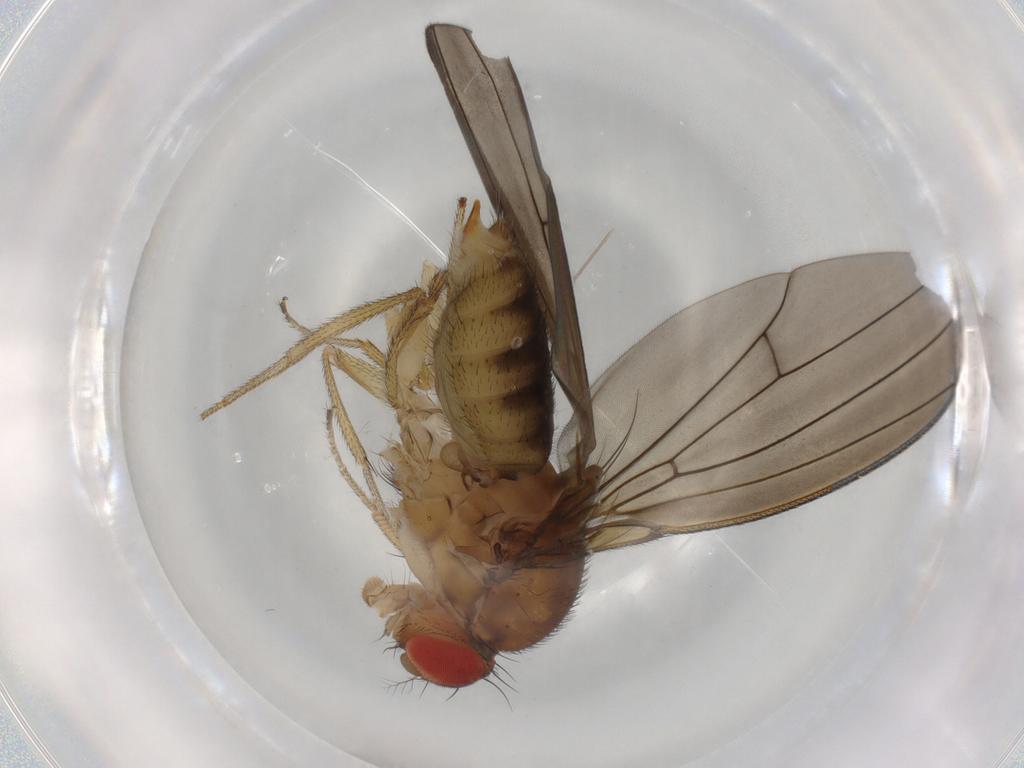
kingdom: Animalia
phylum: Arthropoda
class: Insecta
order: Diptera
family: Drosophilidae
